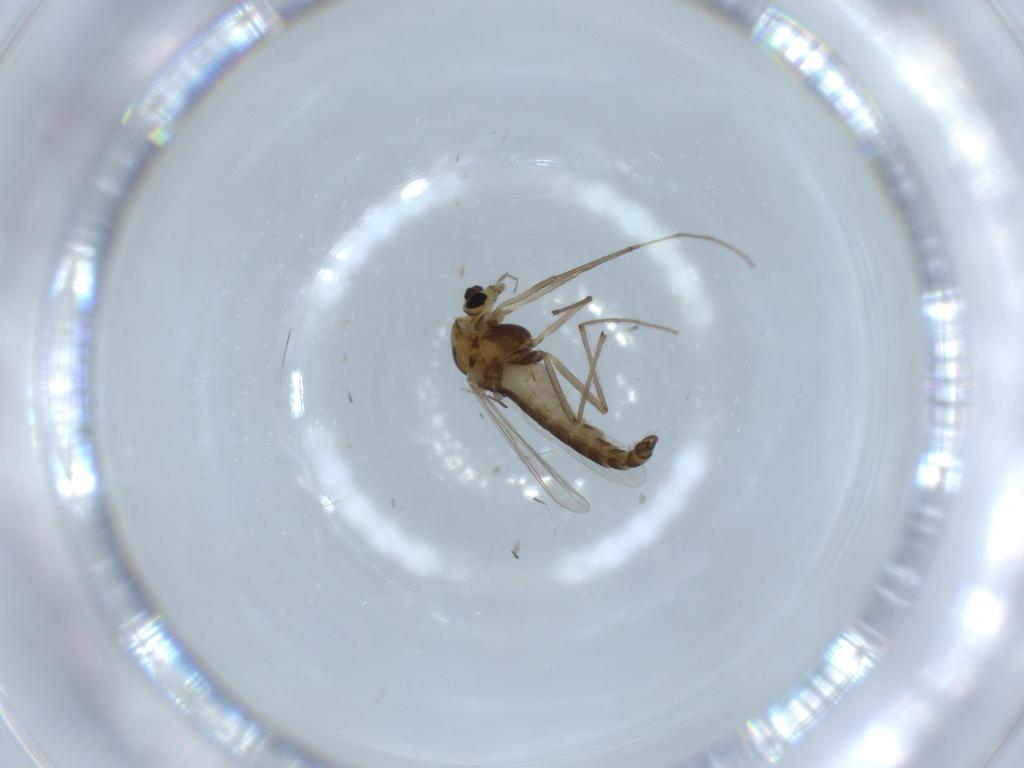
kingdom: Animalia
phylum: Arthropoda
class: Insecta
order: Diptera
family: Chironomidae
